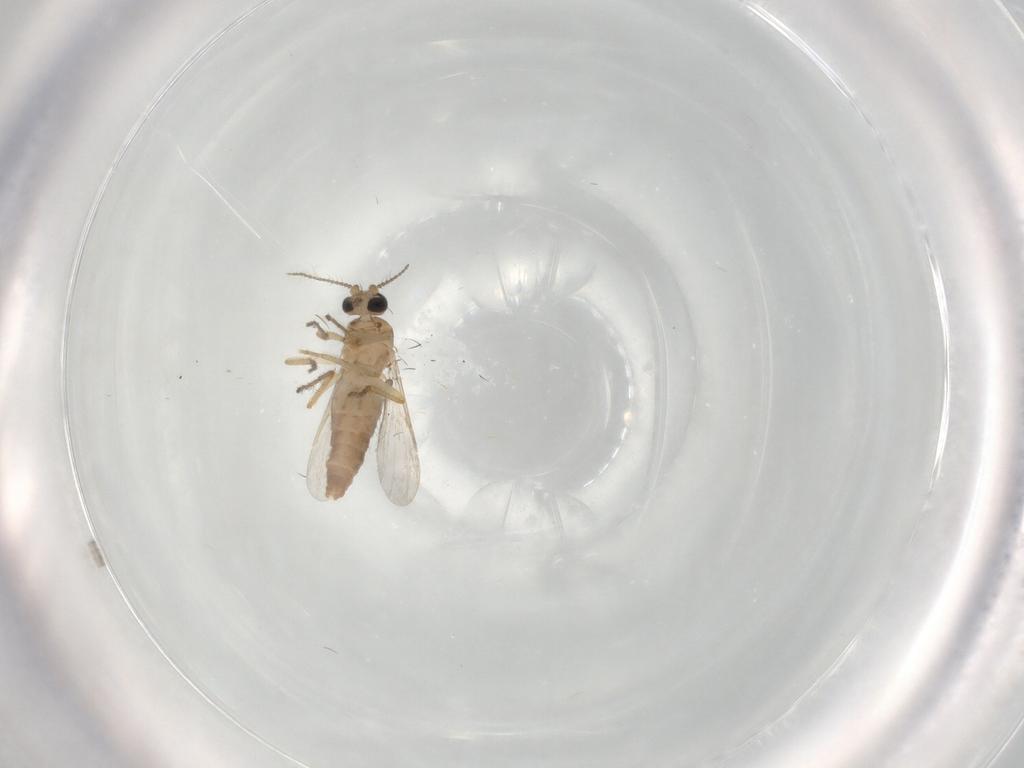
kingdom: Animalia
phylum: Arthropoda
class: Insecta
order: Diptera
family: Ceratopogonidae
